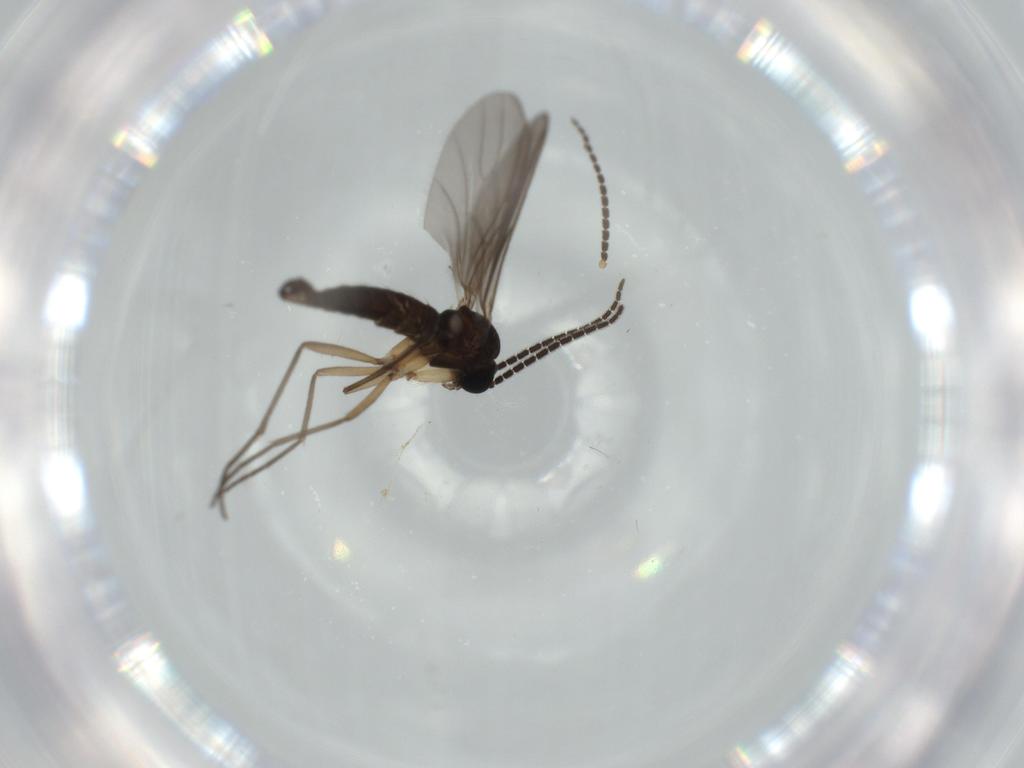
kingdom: Animalia
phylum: Arthropoda
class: Insecta
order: Diptera
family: Sciaridae
